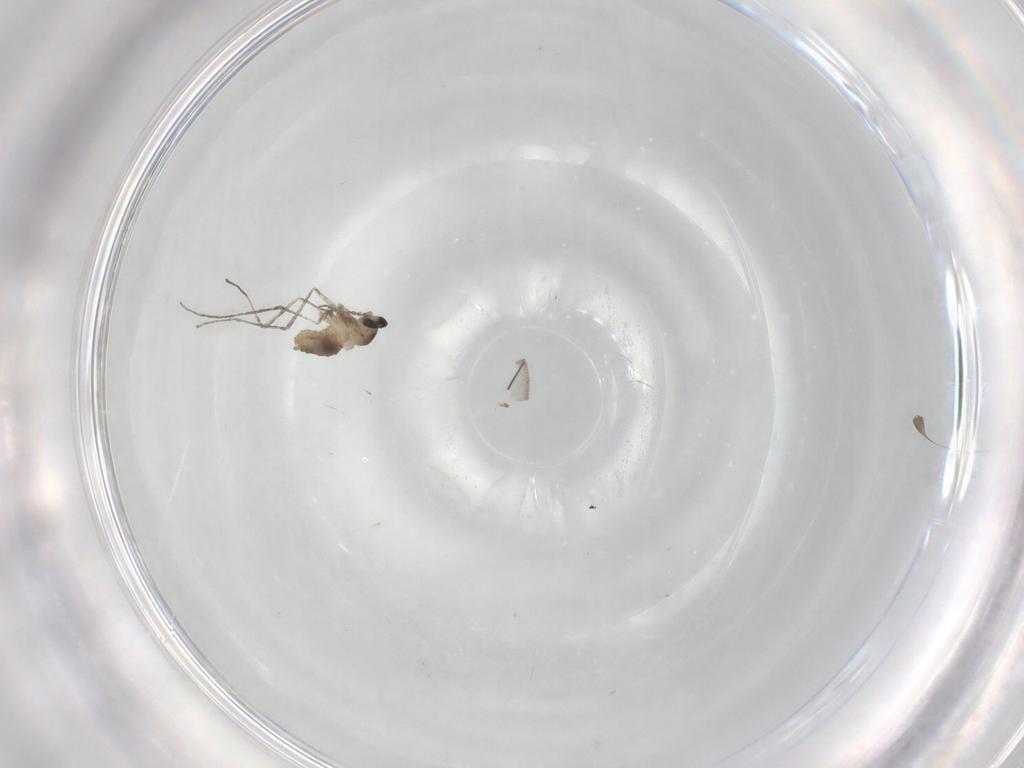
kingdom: Animalia
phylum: Arthropoda
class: Insecta
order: Diptera
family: Cecidomyiidae
